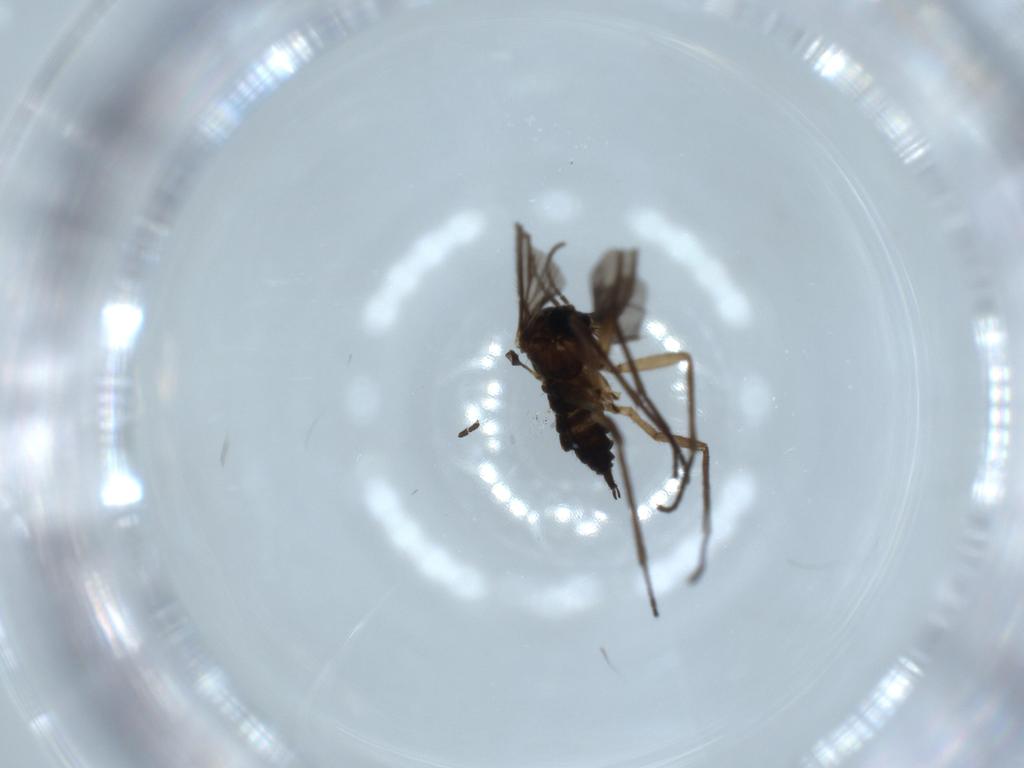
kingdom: Animalia
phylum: Arthropoda
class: Insecta
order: Diptera
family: Sciaridae
